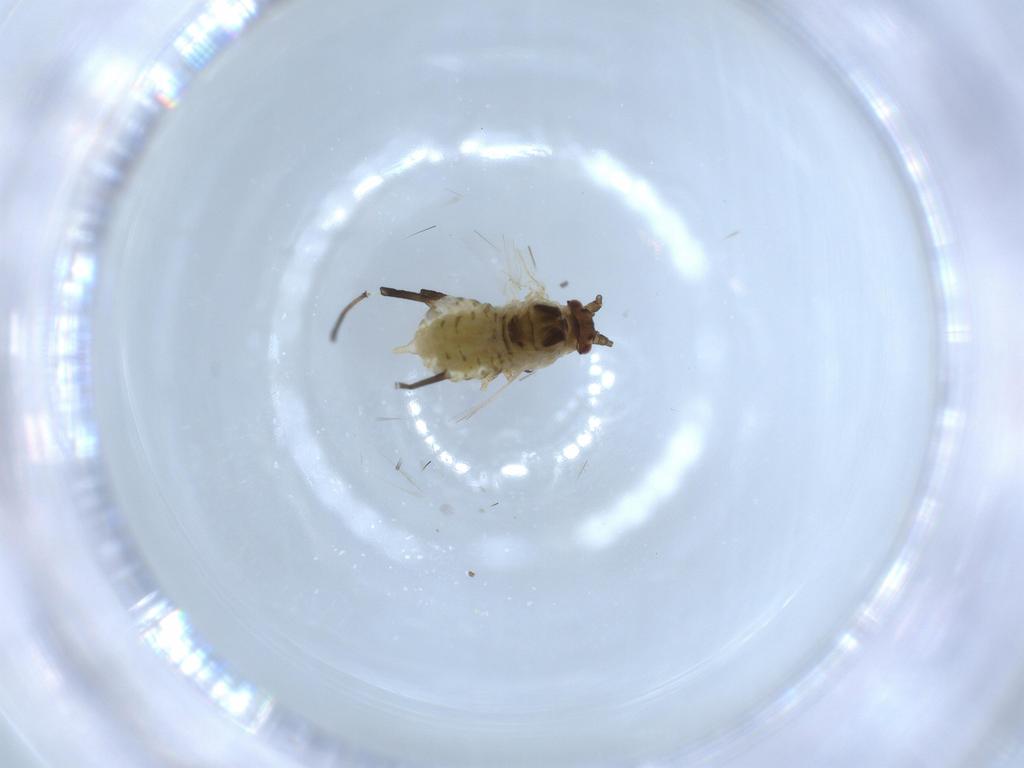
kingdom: Animalia
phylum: Arthropoda
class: Insecta
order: Hemiptera
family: Aphididae
